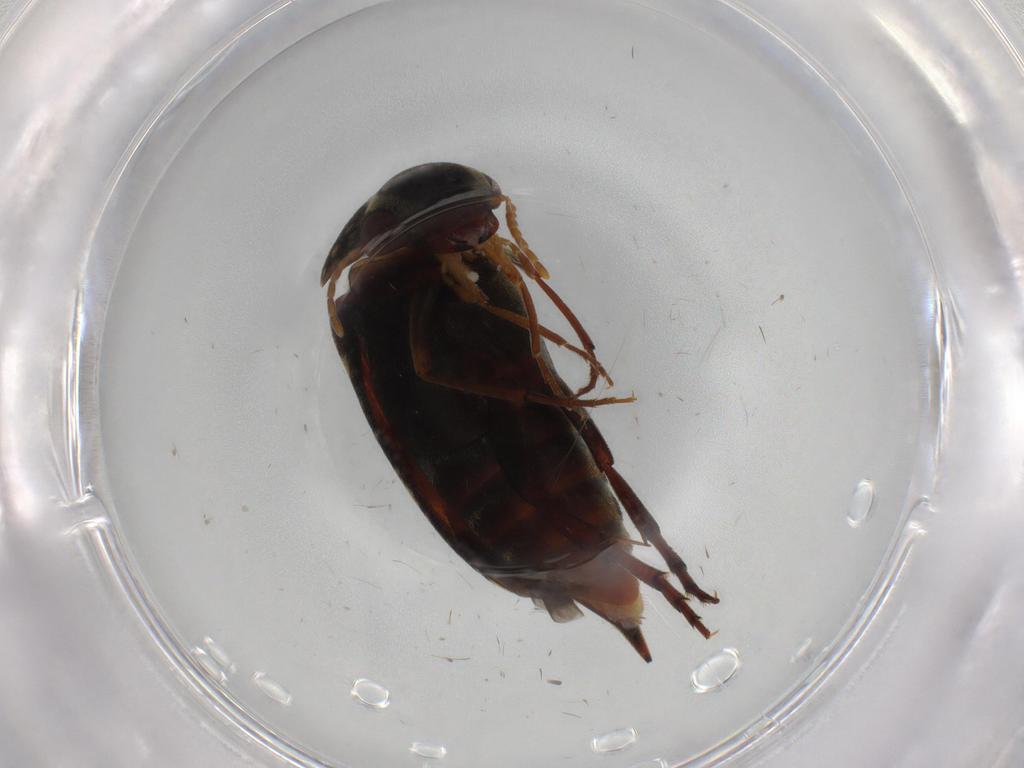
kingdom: Animalia
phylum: Arthropoda
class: Insecta
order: Coleoptera
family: Mordellidae
